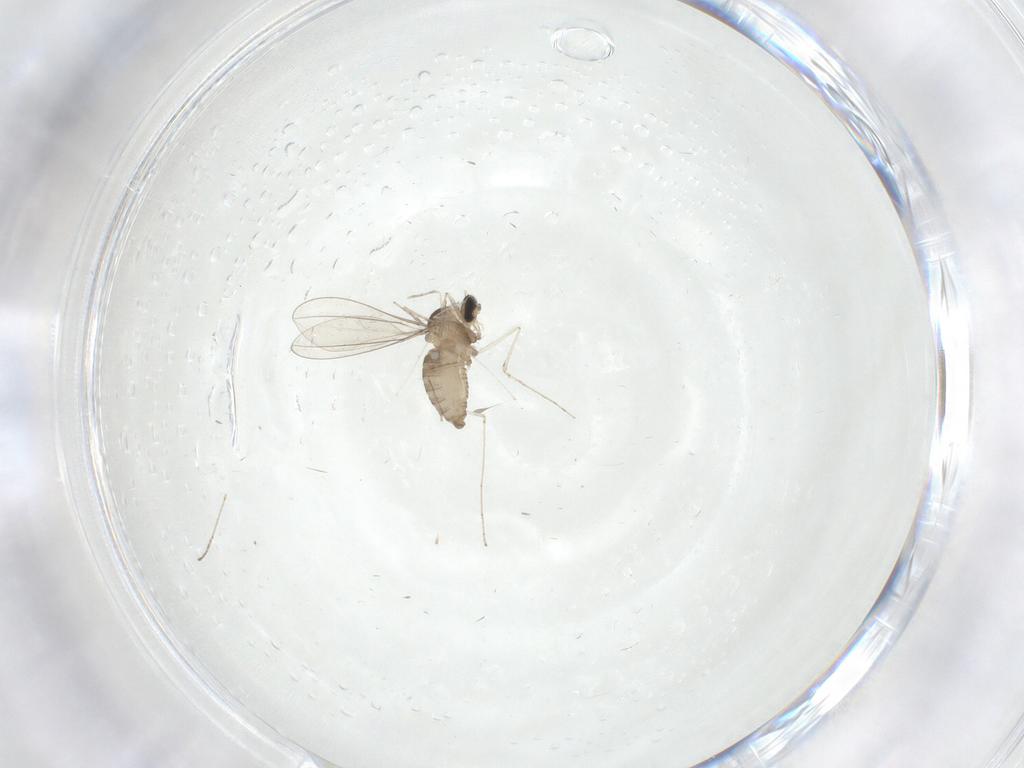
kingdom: Animalia
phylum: Arthropoda
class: Insecta
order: Diptera
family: Cecidomyiidae
